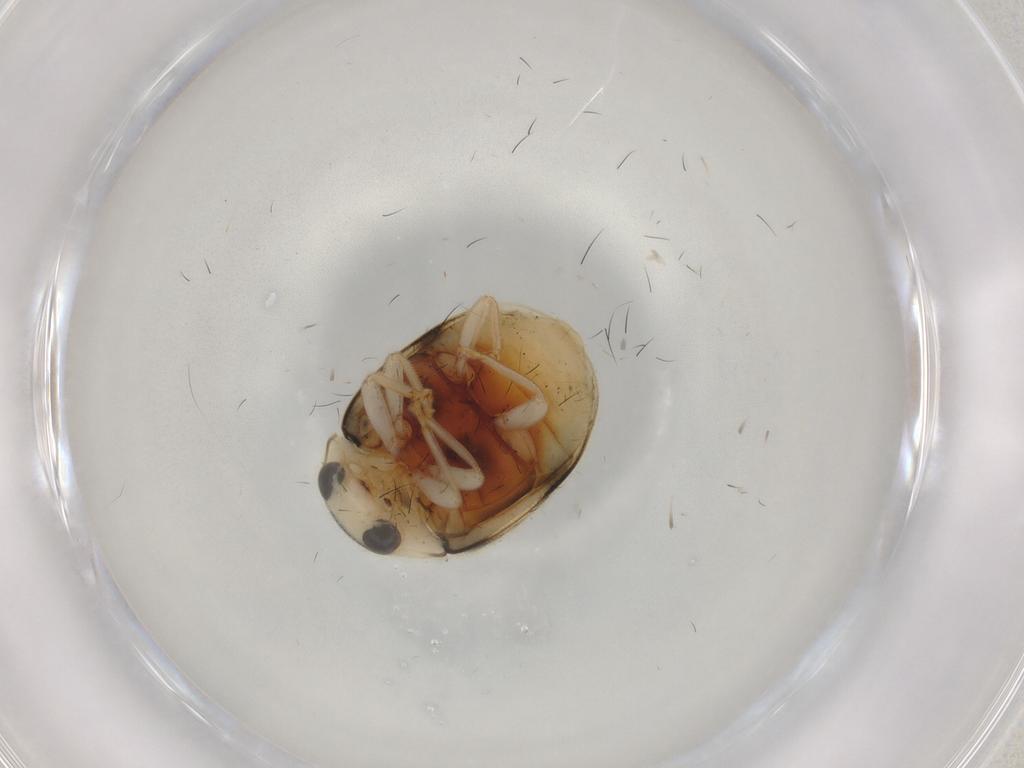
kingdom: Animalia
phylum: Arthropoda
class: Insecta
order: Coleoptera
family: Coccinellidae
